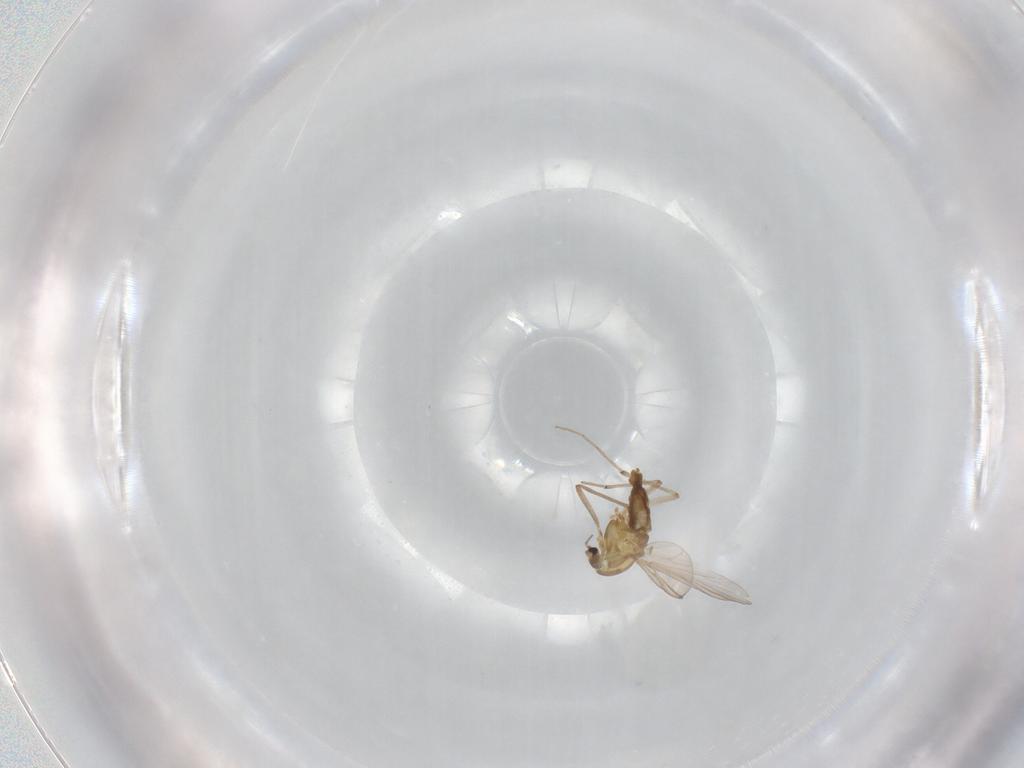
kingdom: Animalia
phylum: Arthropoda
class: Insecta
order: Diptera
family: Chironomidae
